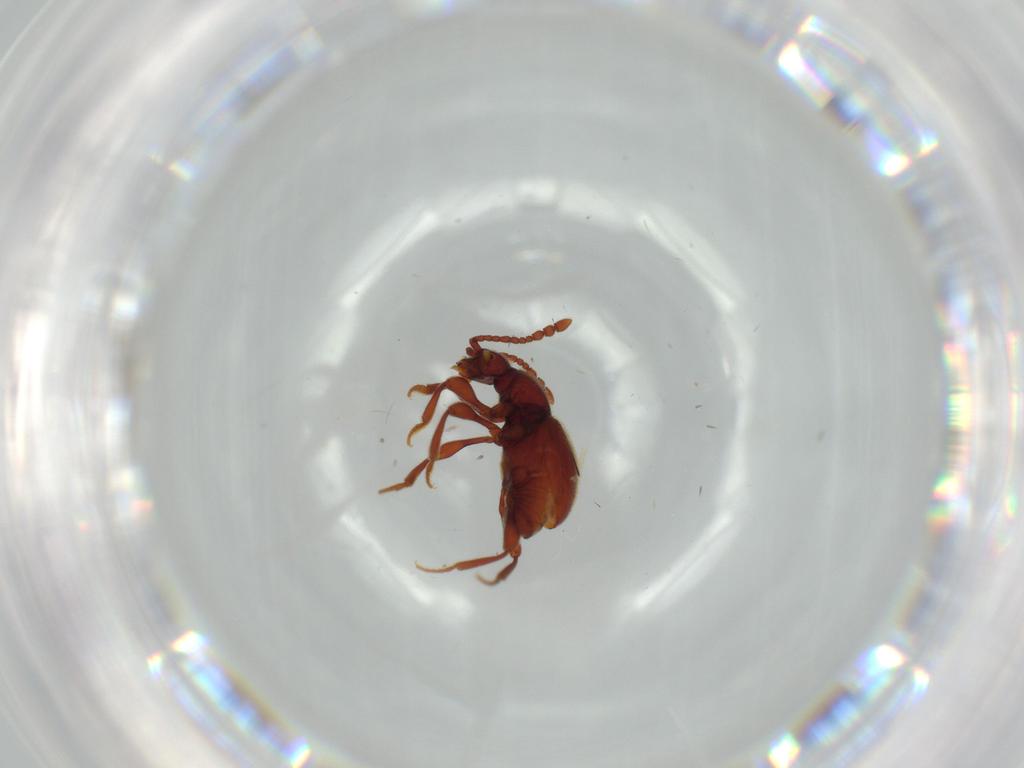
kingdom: Animalia
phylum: Arthropoda
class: Insecta
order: Coleoptera
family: Staphylinidae
